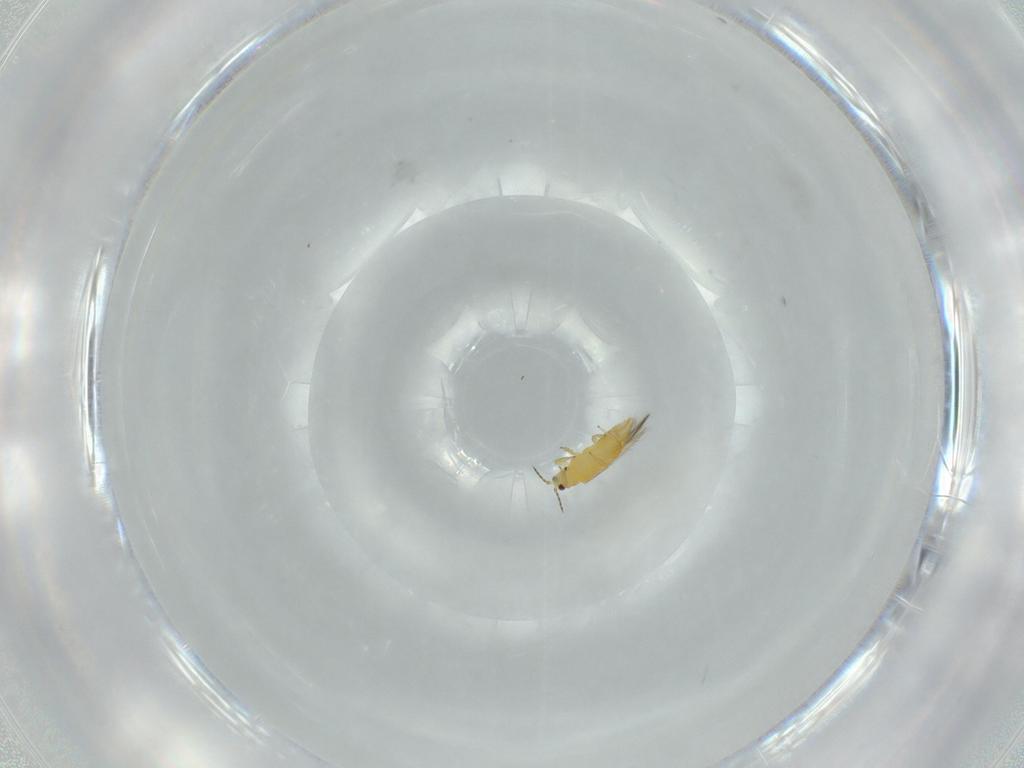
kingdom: Animalia
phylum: Arthropoda
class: Insecta
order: Thysanoptera
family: Thripidae
